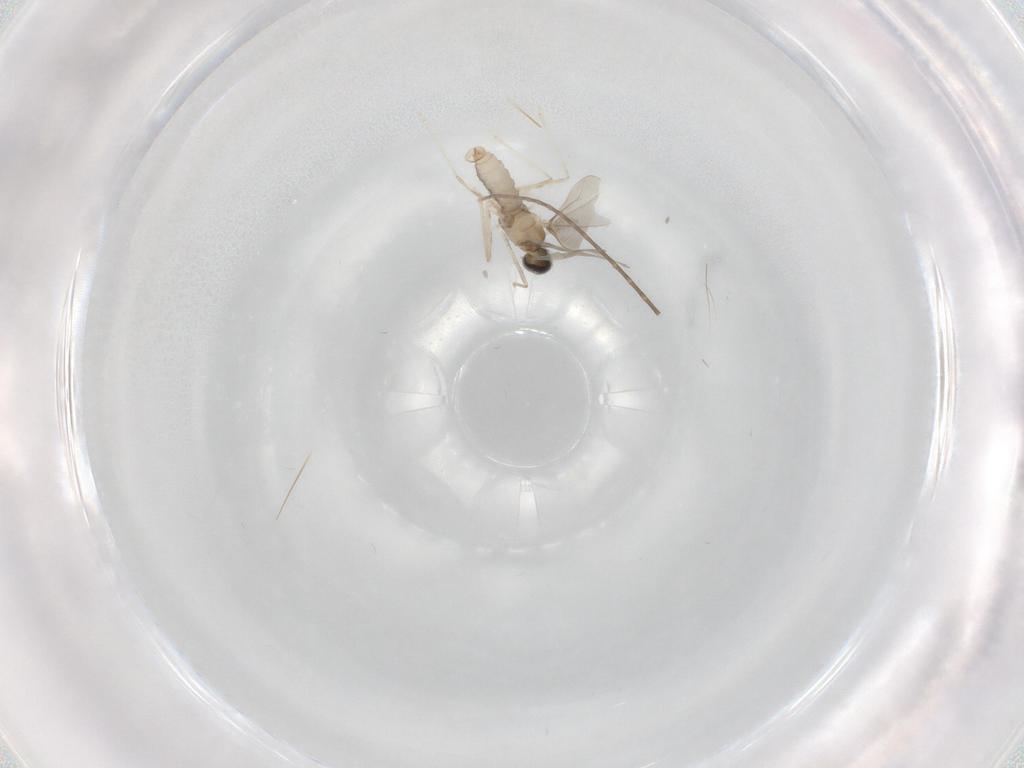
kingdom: Animalia
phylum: Arthropoda
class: Insecta
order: Diptera
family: Cecidomyiidae
